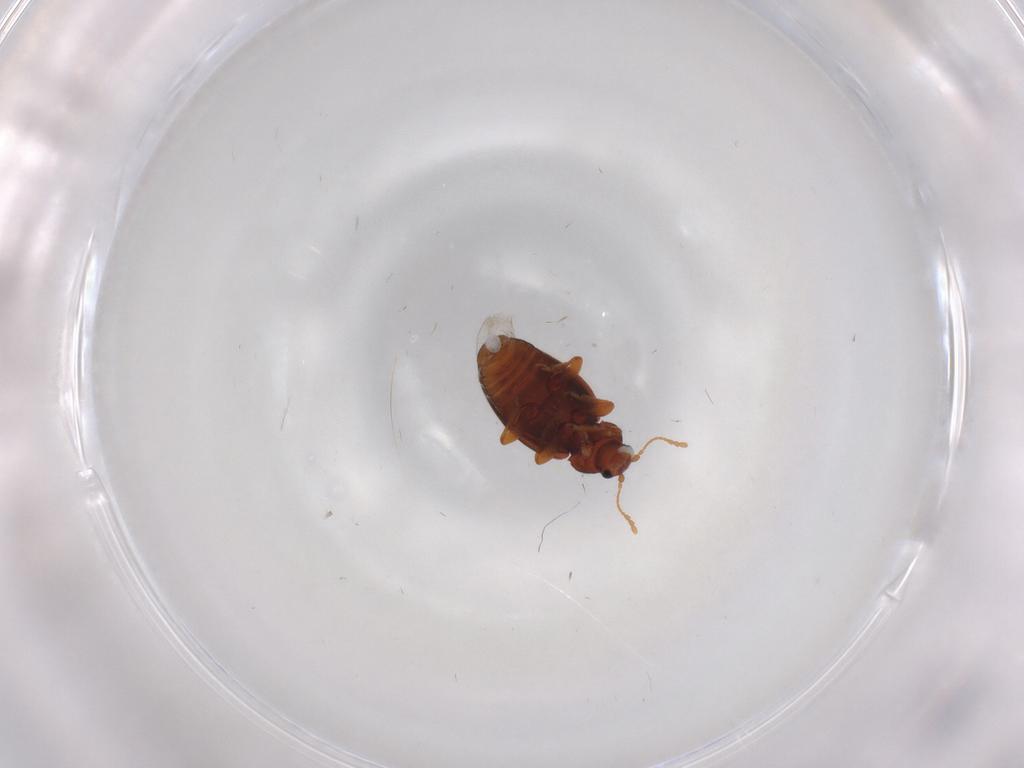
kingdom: Animalia
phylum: Arthropoda
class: Insecta
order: Coleoptera
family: Latridiidae
